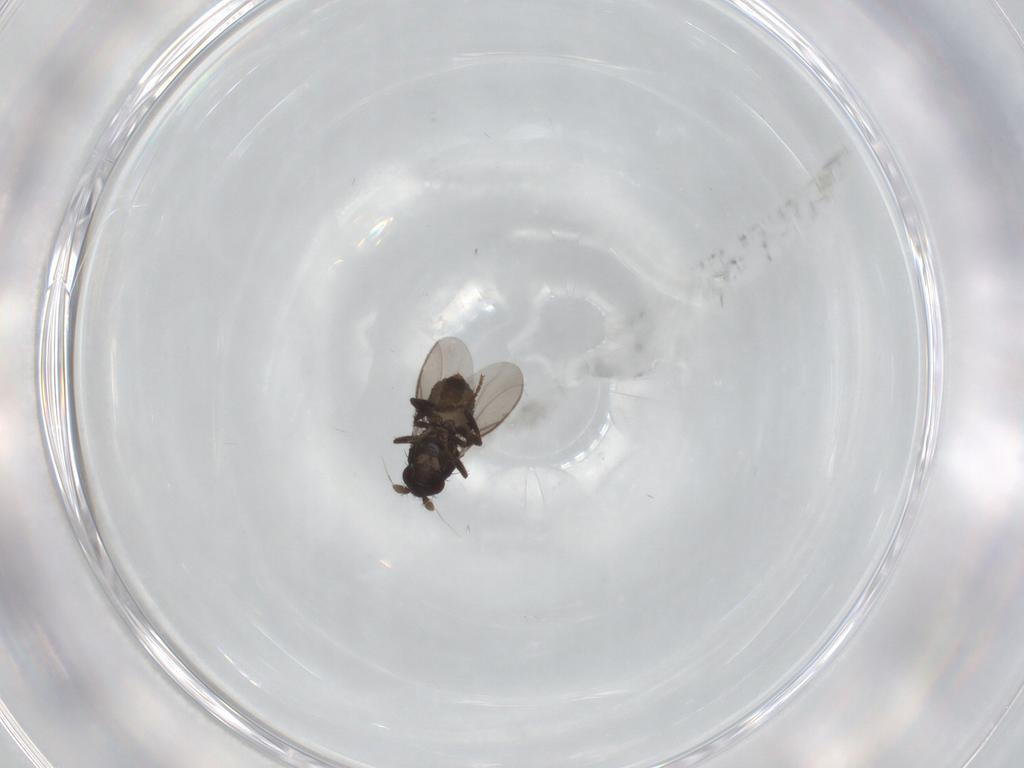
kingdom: Animalia
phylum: Arthropoda
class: Insecta
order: Diptera
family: Sphaeroceridae
